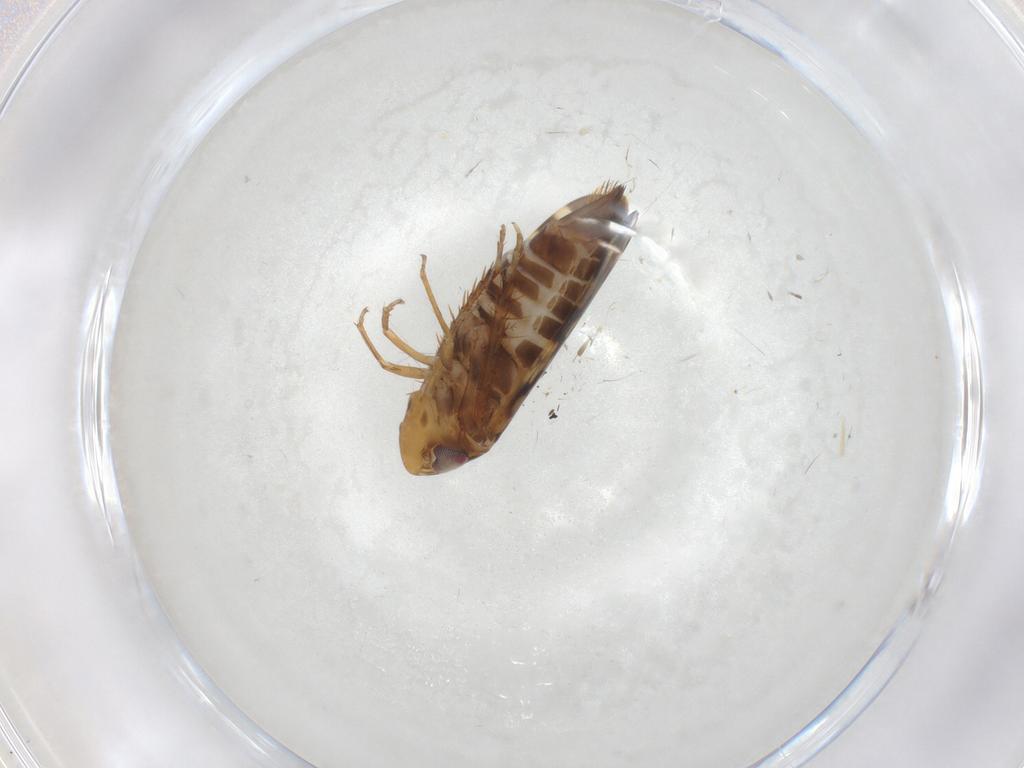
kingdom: Animalia
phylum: Arthropoda
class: Insecta
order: Hemiptera
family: Cicadellidae
